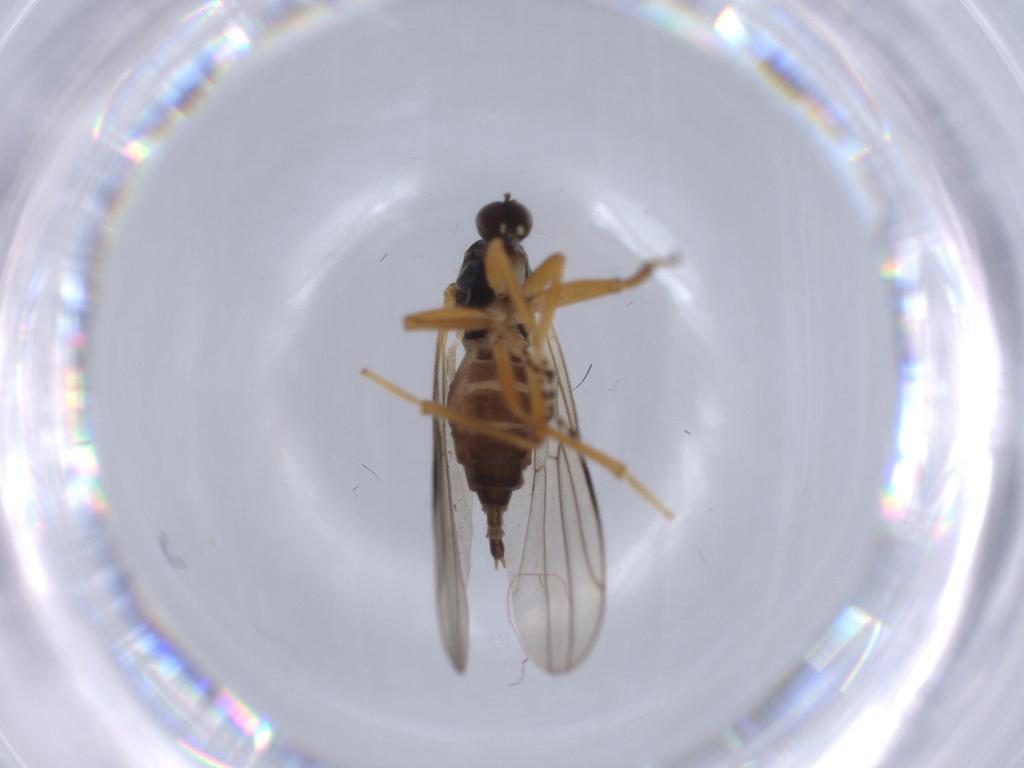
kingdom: Animalia
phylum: Arthropoda
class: Insecta
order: Diptera
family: Hybotidae
